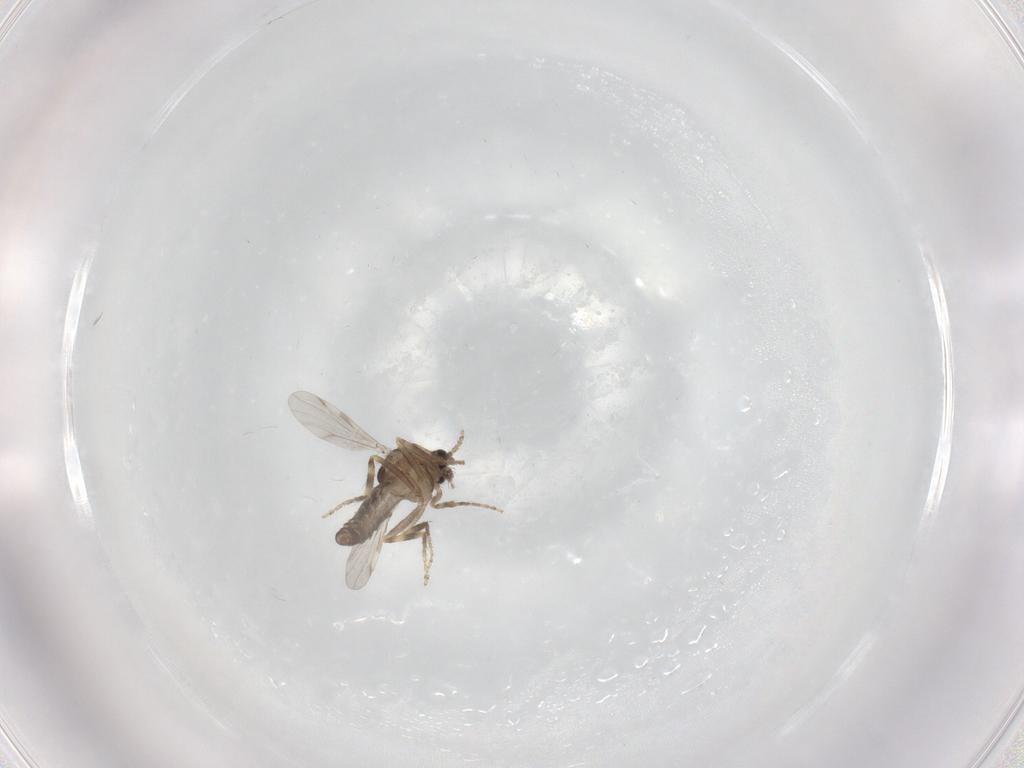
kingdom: Animalia
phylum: Arthropoda
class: Insecta
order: Diptera
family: Ceratopogonidae
